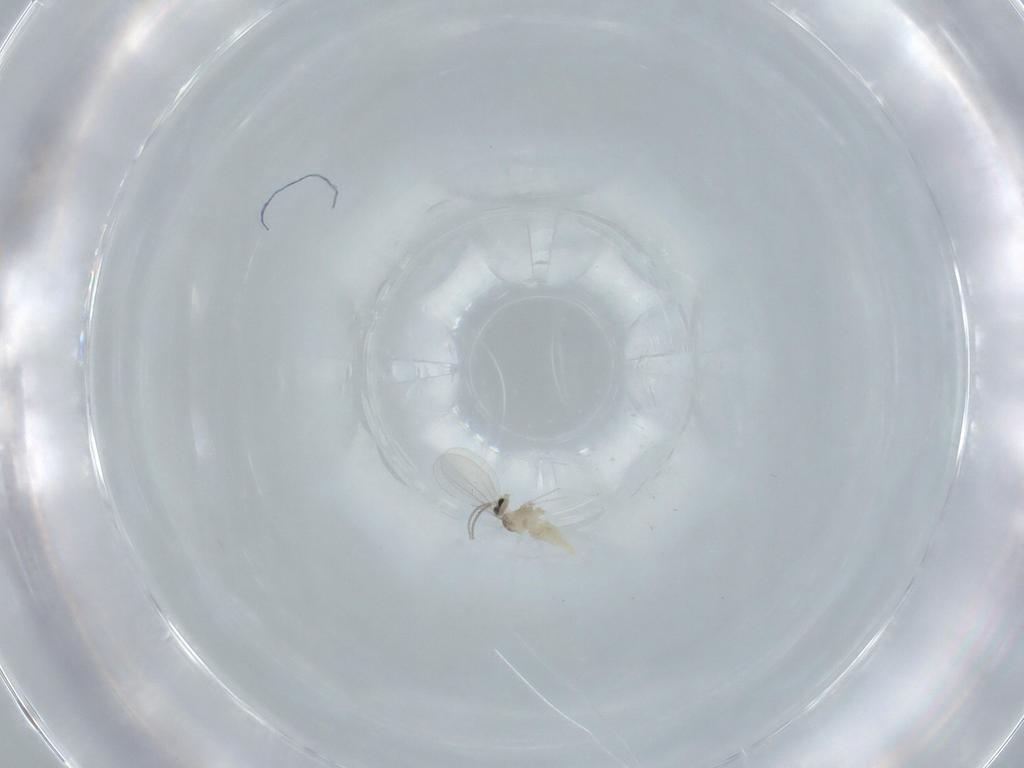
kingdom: Animalia
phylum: Arthropoda
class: Insecta
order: Diptera
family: Cecidomyiidae
